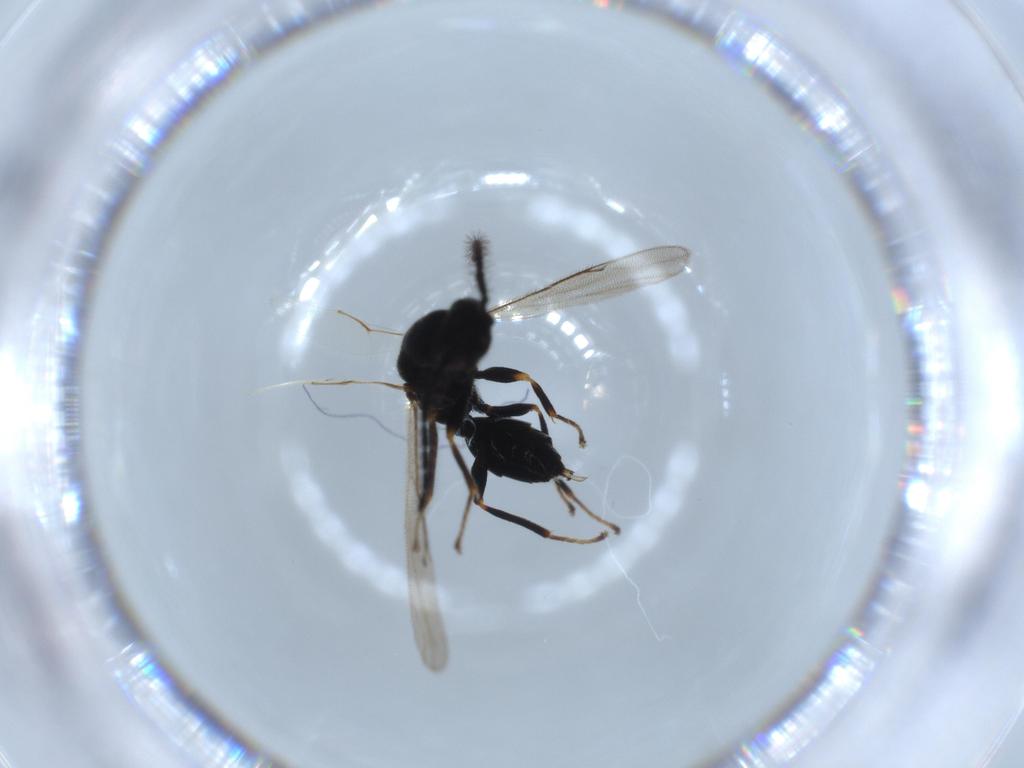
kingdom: Animalia
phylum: Arthropoda
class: Insecta
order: Hymenoptera
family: Eurytomidae
